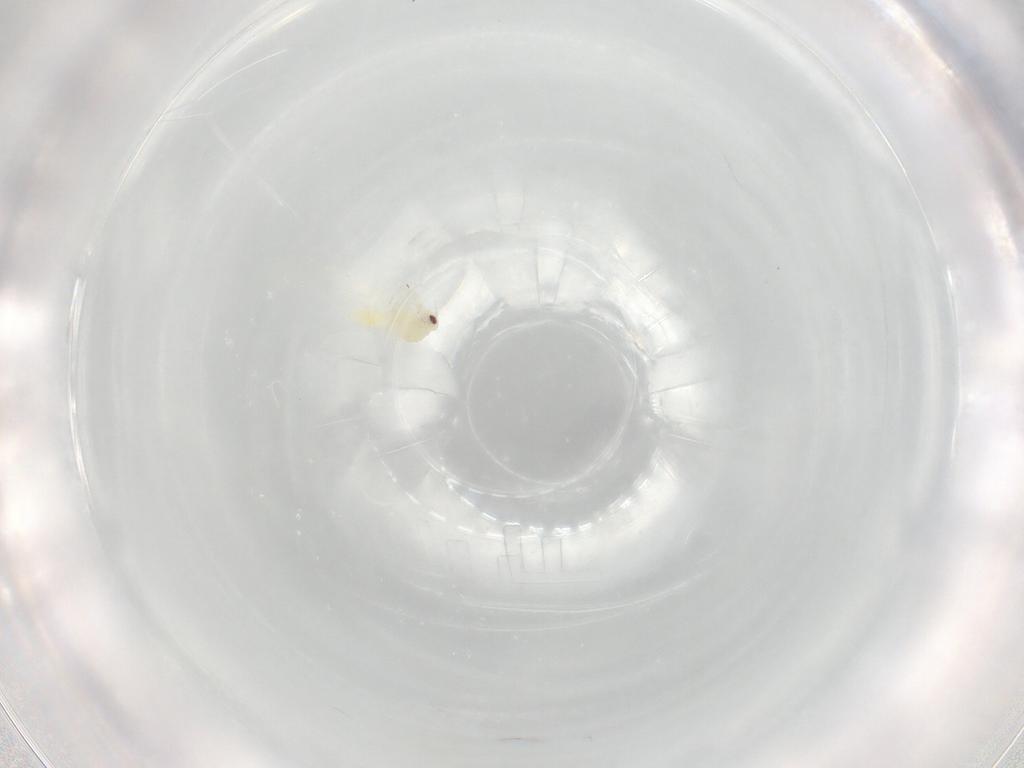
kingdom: Animalia
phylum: Arthropoda
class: Insecta
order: Hemiptera
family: Aleyrodidae
